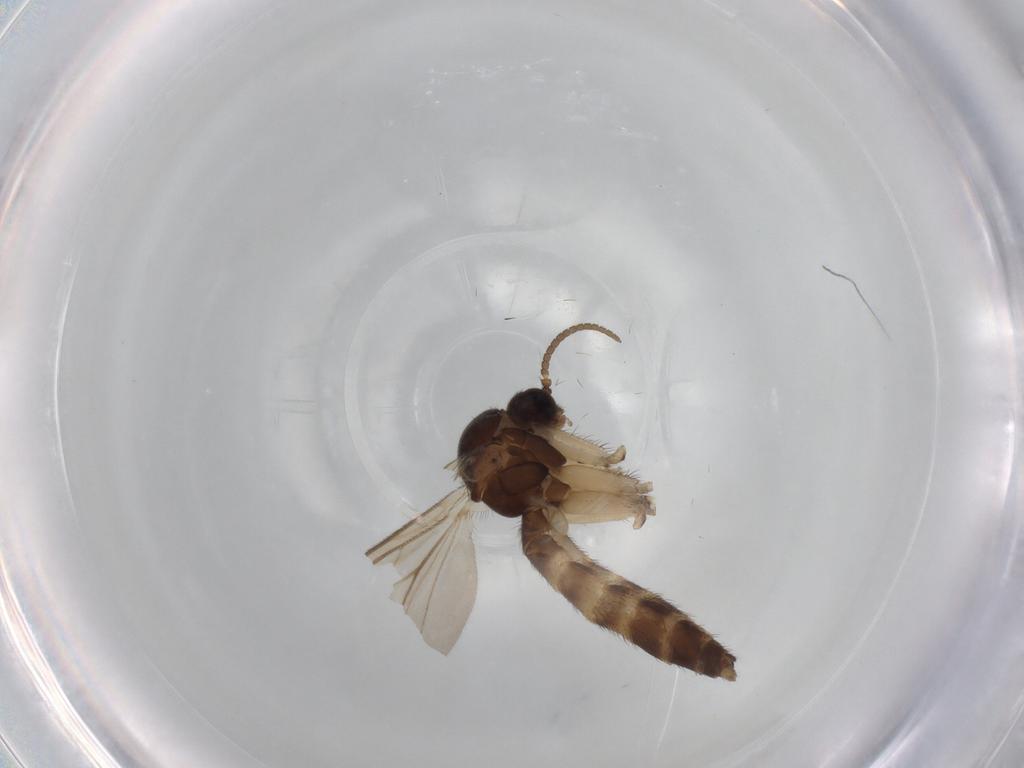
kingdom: Animalia
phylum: Arthropoda
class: Insecta
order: Diptera
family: Dolichopodidae
